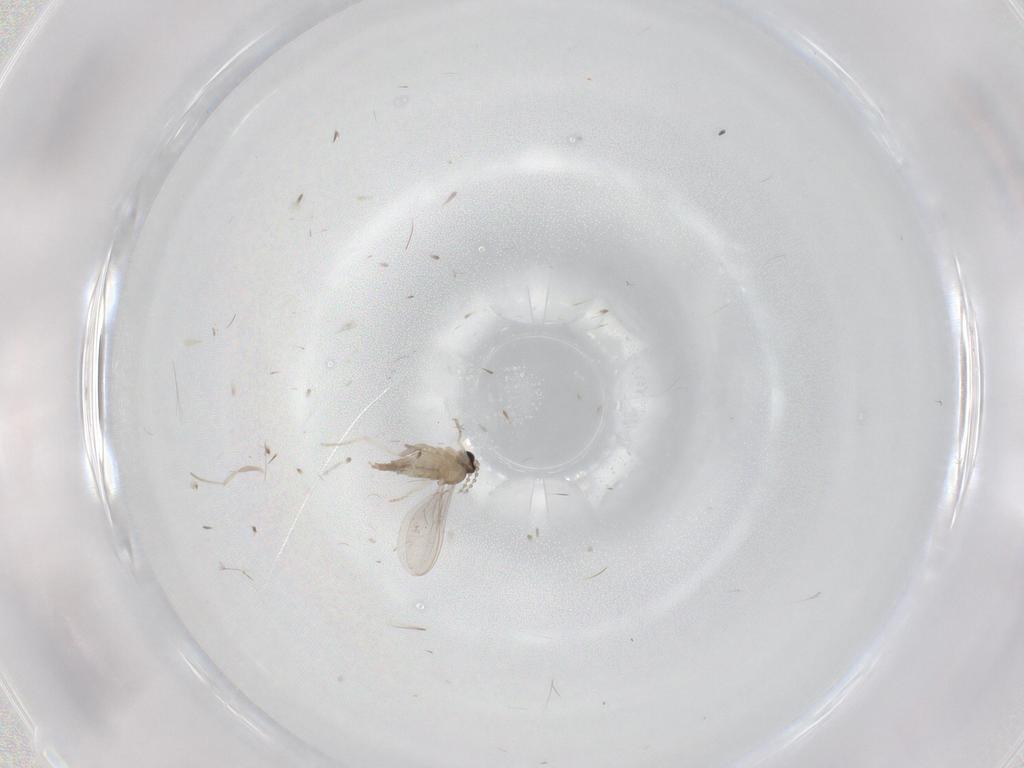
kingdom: Animalia
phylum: Arthropoda
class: Insecta
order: Diptera
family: Cecidomyiidae
